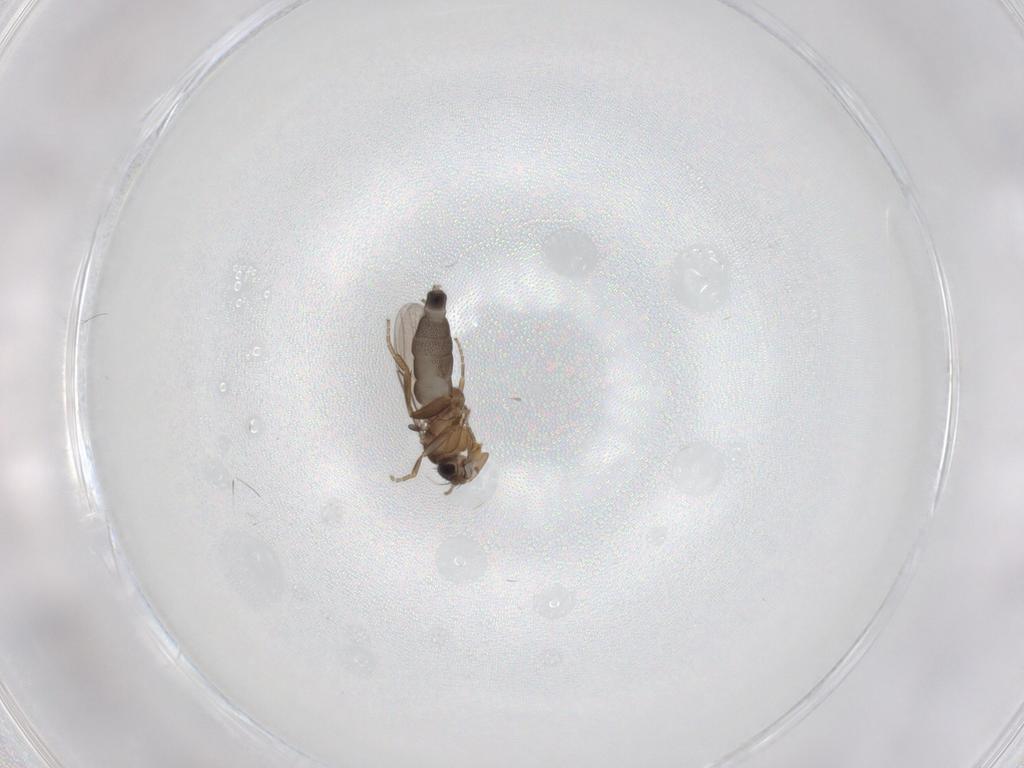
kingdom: Animalia
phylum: Arthropoda
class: Insecta
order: Diptera
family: Phoridae
